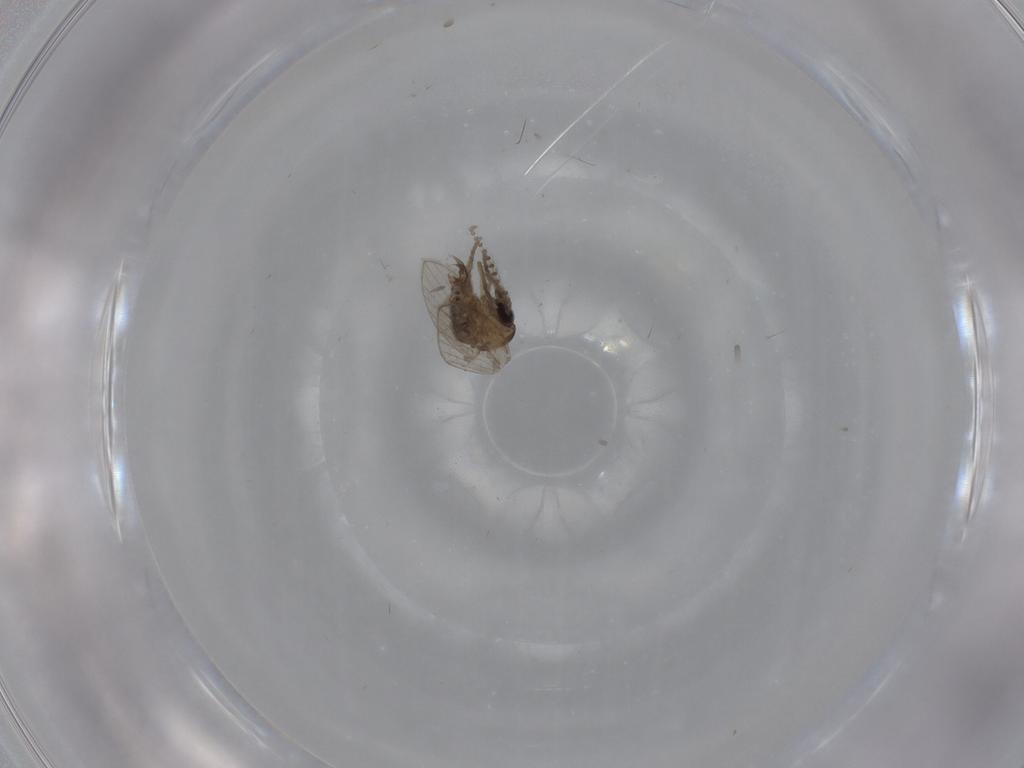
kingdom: Animalia
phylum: Arthropoda
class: Insecta
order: Diptera
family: Psychodidae
